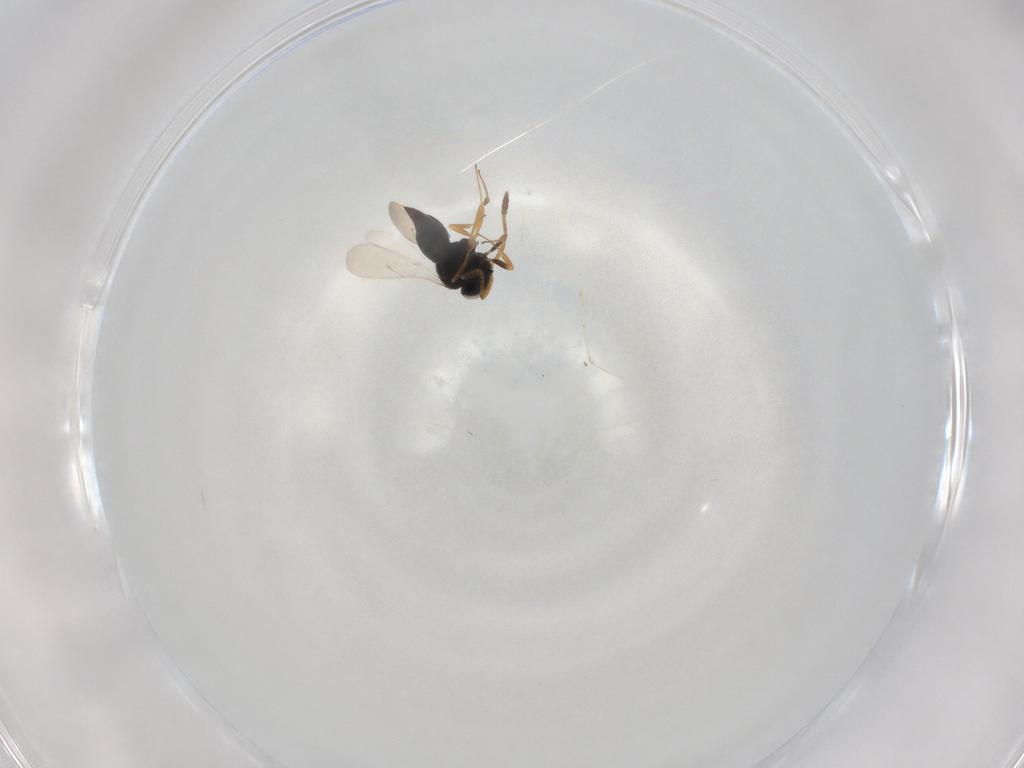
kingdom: Animalia
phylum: Arthropoda
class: Insecta
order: Hymenoptera
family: Scelionidae
